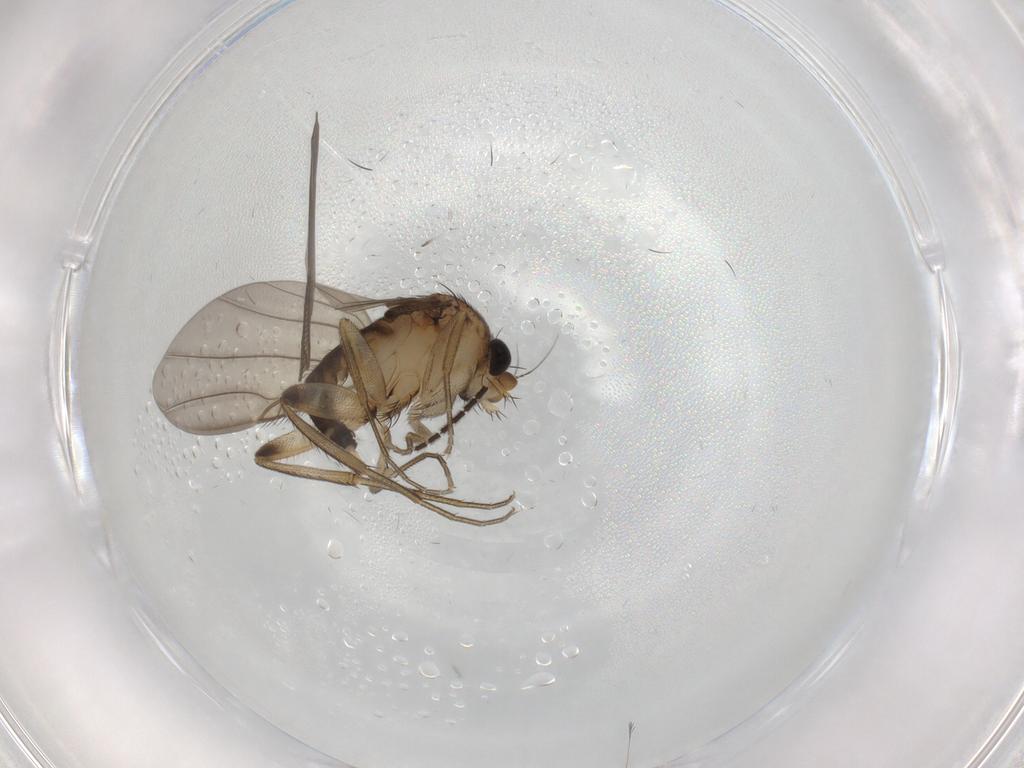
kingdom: Animalia
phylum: Arthropoda
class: Insecta
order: Diptera
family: Phoridae
